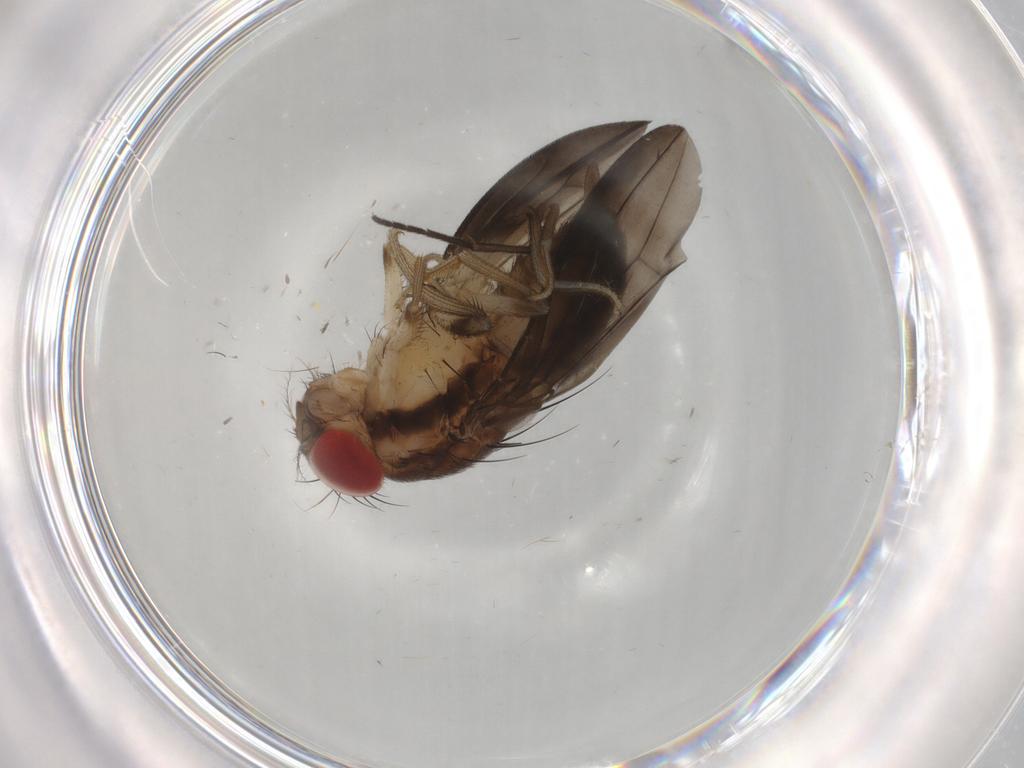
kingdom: Animalia
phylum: Arthropoda
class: Insecta
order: Diptera
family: Drosophilidae
